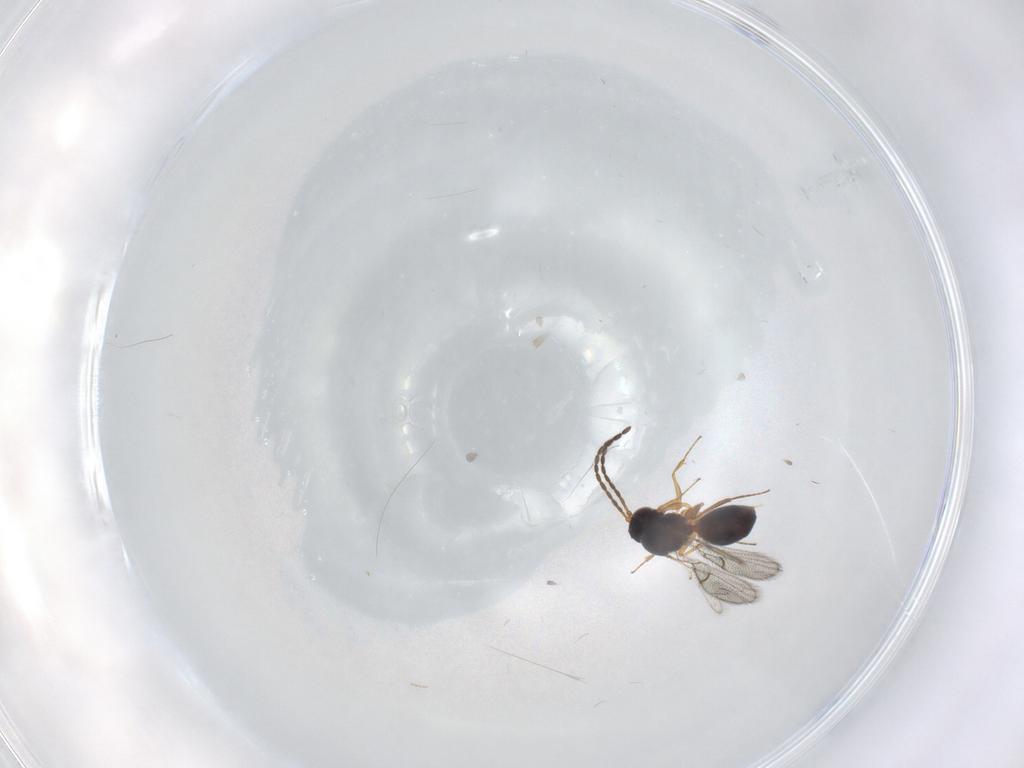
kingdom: Animalia
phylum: Arthropoda
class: Insecta
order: Hymenoptera
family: Figitidae
